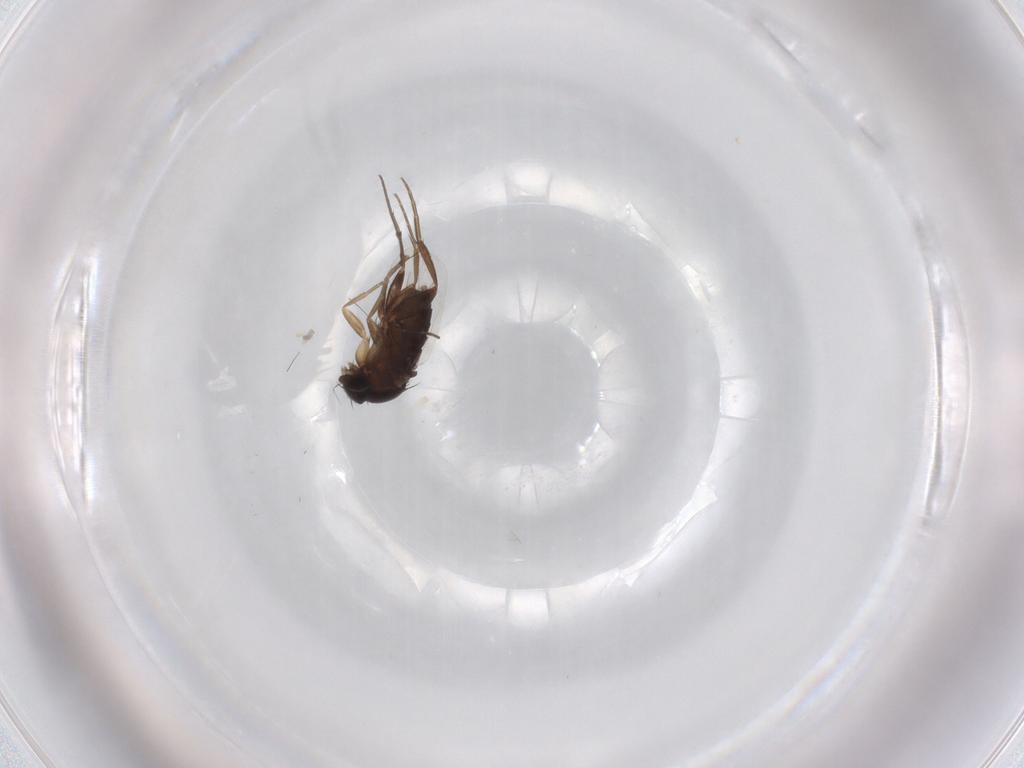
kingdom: Animalia
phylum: Arthropoda
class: Insecta
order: Diptera
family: Phoridae
